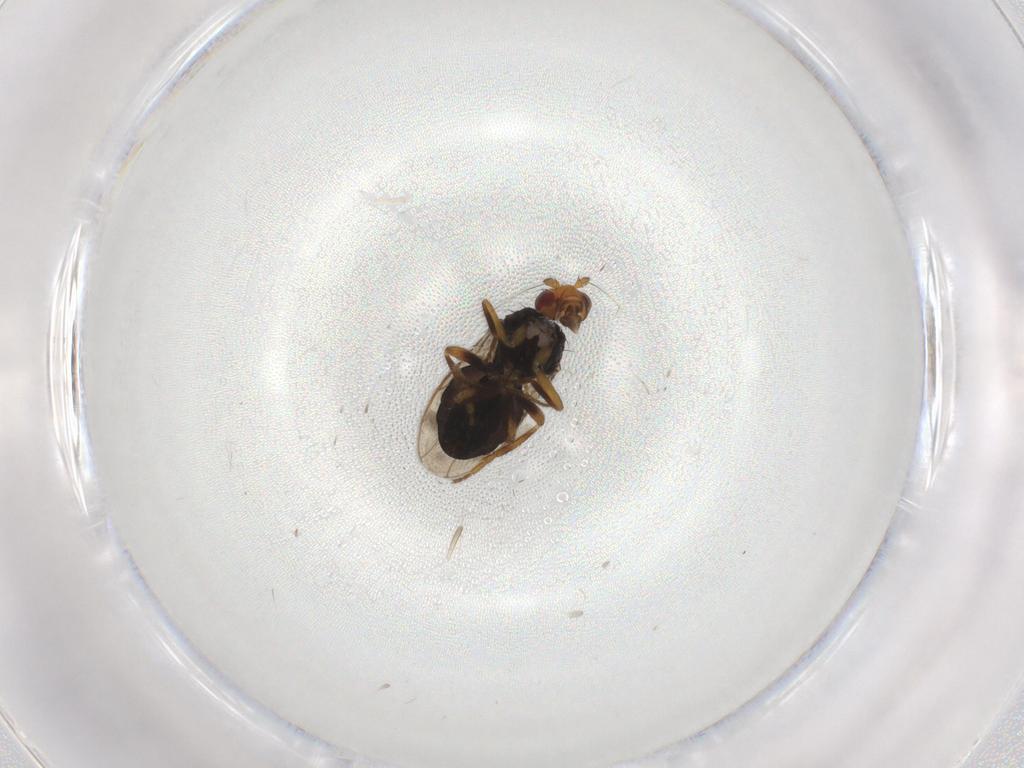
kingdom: Animalia
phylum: Arthropoda
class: Insecta
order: Diptera
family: Sphaeroceridae
